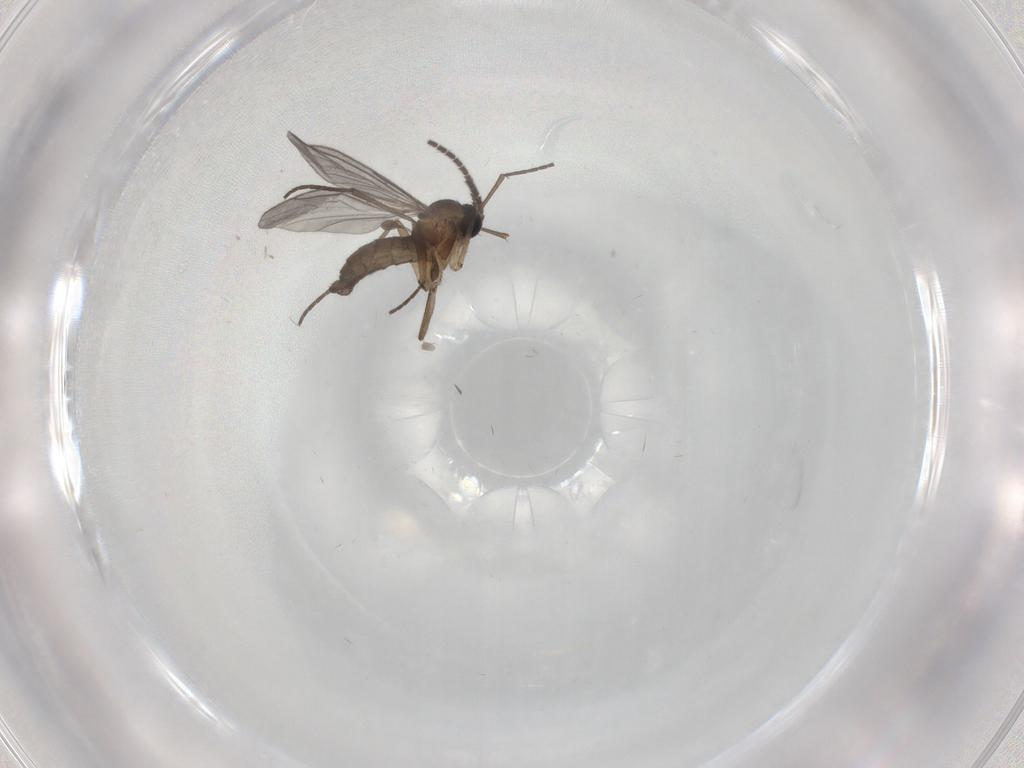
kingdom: Animalia
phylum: Arthropoda
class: Insecta
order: Diptera
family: Sciaridae
